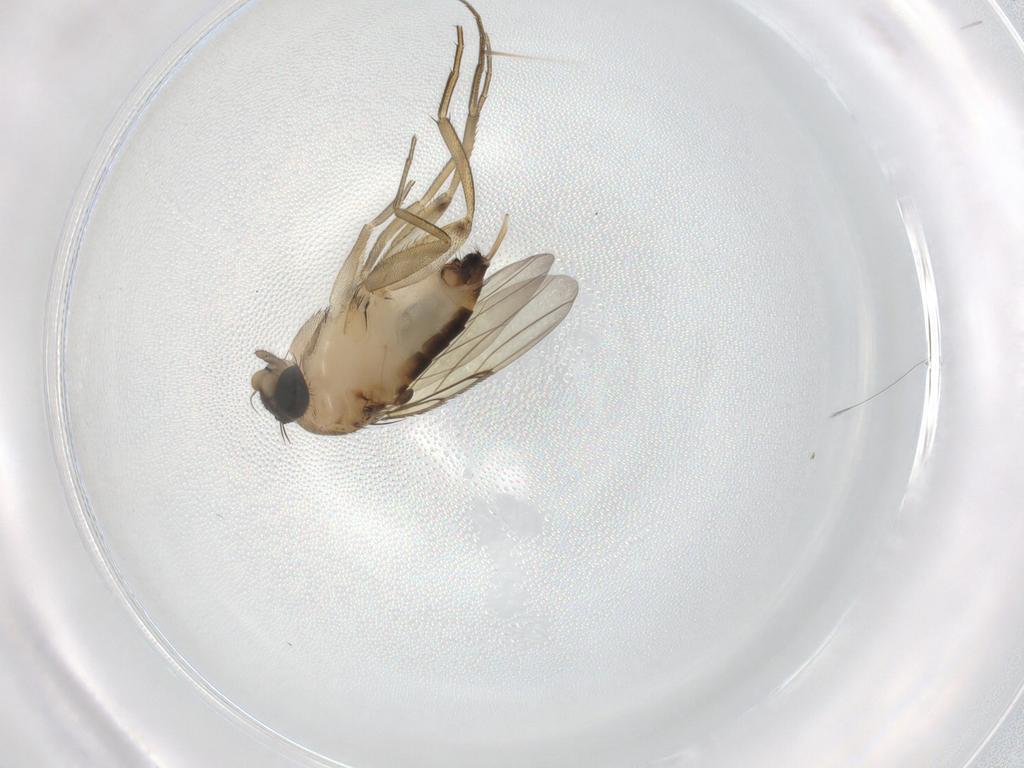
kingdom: Animalia
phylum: Arthropoda
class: Insecta
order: Diptera
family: Phoridae
